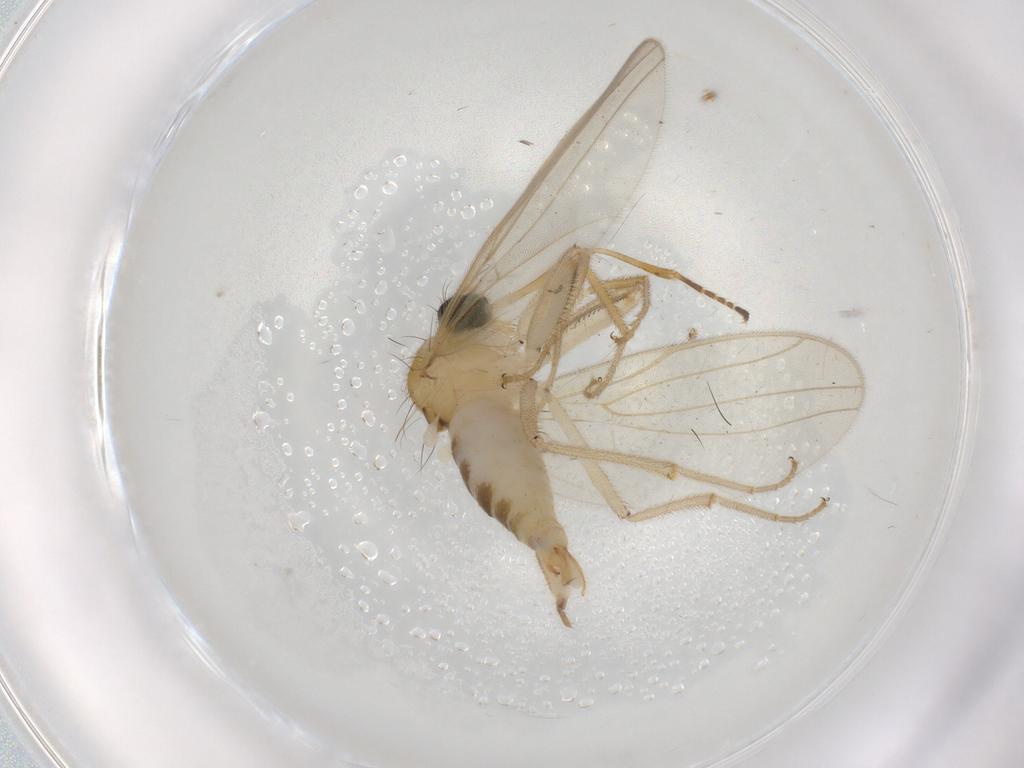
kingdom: Animalia
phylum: Arthropoda
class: Insecta
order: Diptera
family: Hybotidae
